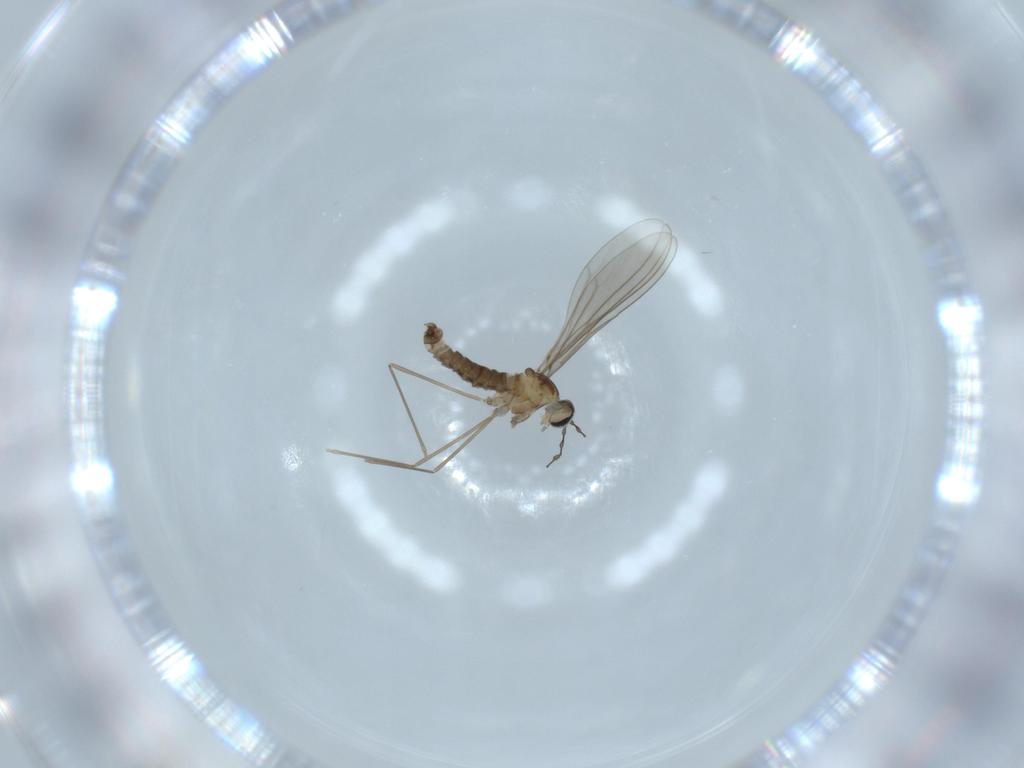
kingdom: Animalia
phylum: Arthropoda
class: Insecta
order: Diptera
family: Cecidomyiidae
